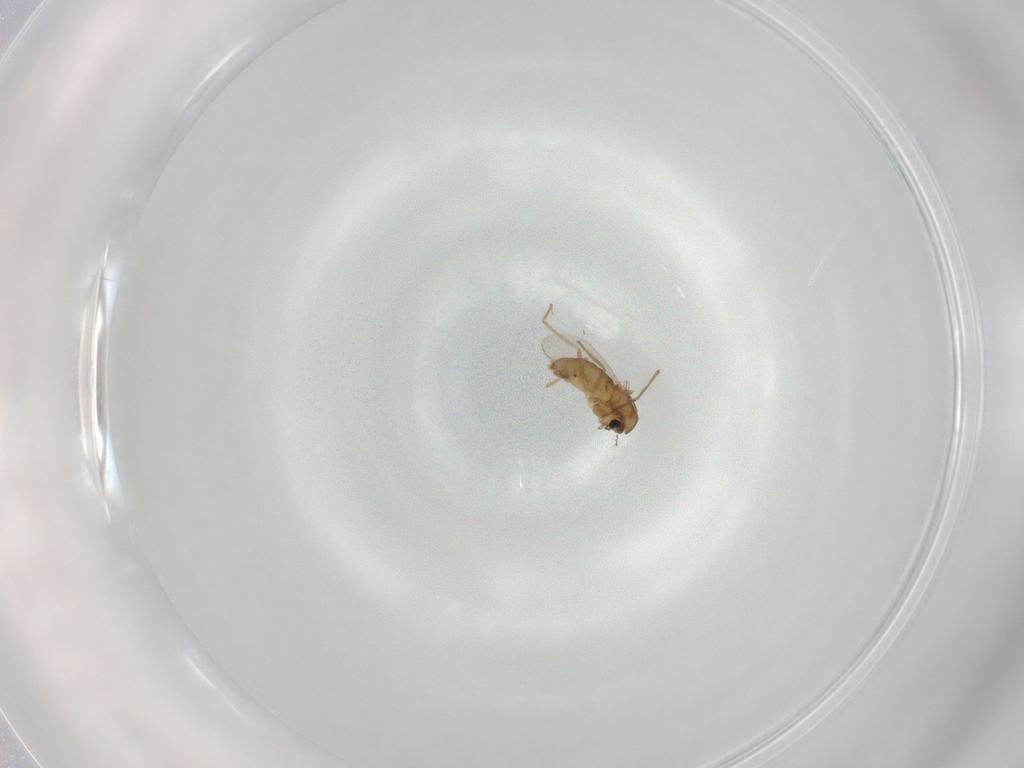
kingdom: Animalia
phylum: Arthropoda
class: Insecta
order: Diptera
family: Chironomidae
